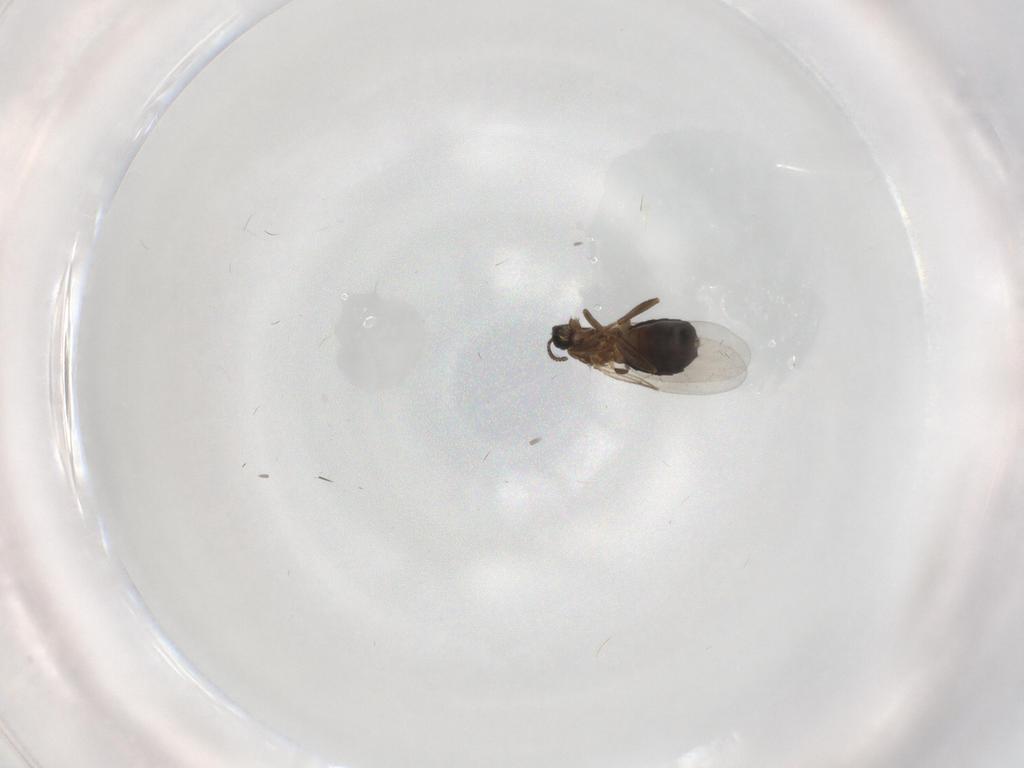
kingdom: Animalia
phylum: Arthropoda
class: Insecta
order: Diptera
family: Scatopsidae
